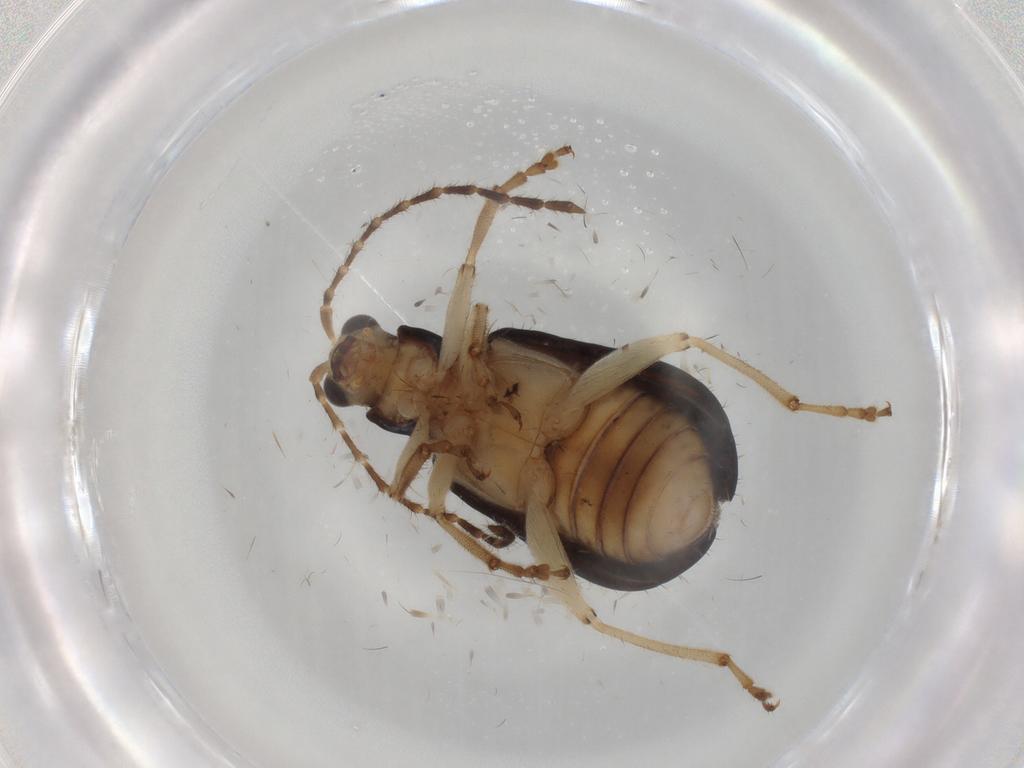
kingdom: Animalia
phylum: Arthropoda
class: Insecta
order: Coleoptera
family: Chrysomelidae
